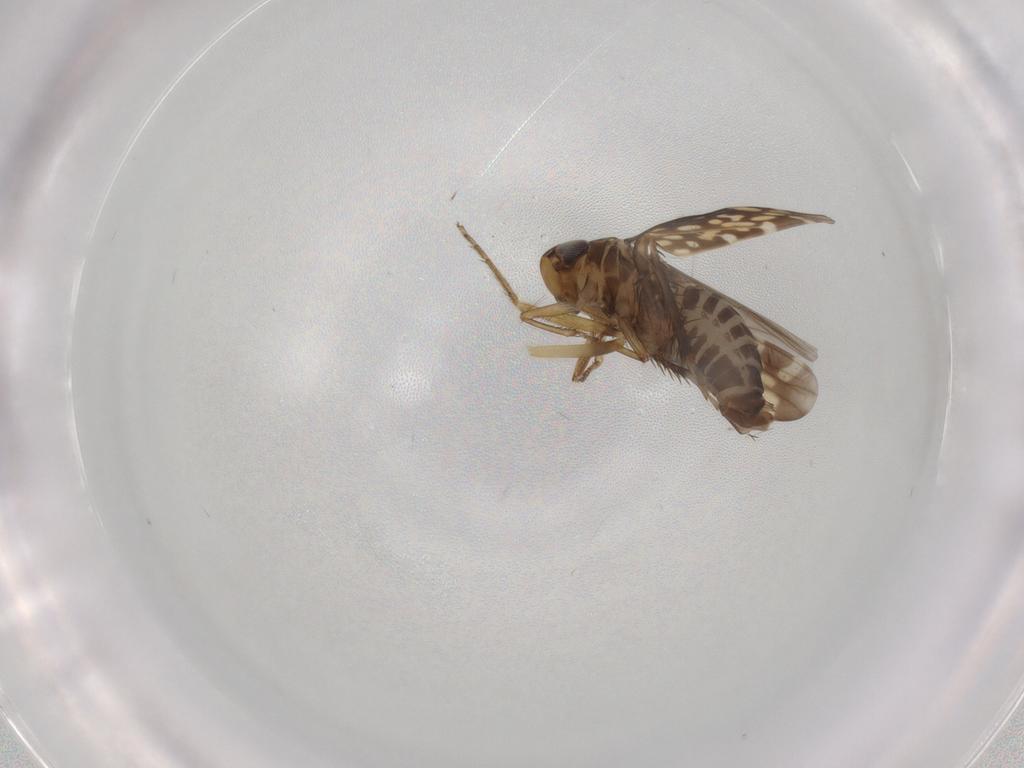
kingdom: Animalia
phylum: Arthropoda
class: Insecta
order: Hemiptera
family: Cicadellidae
